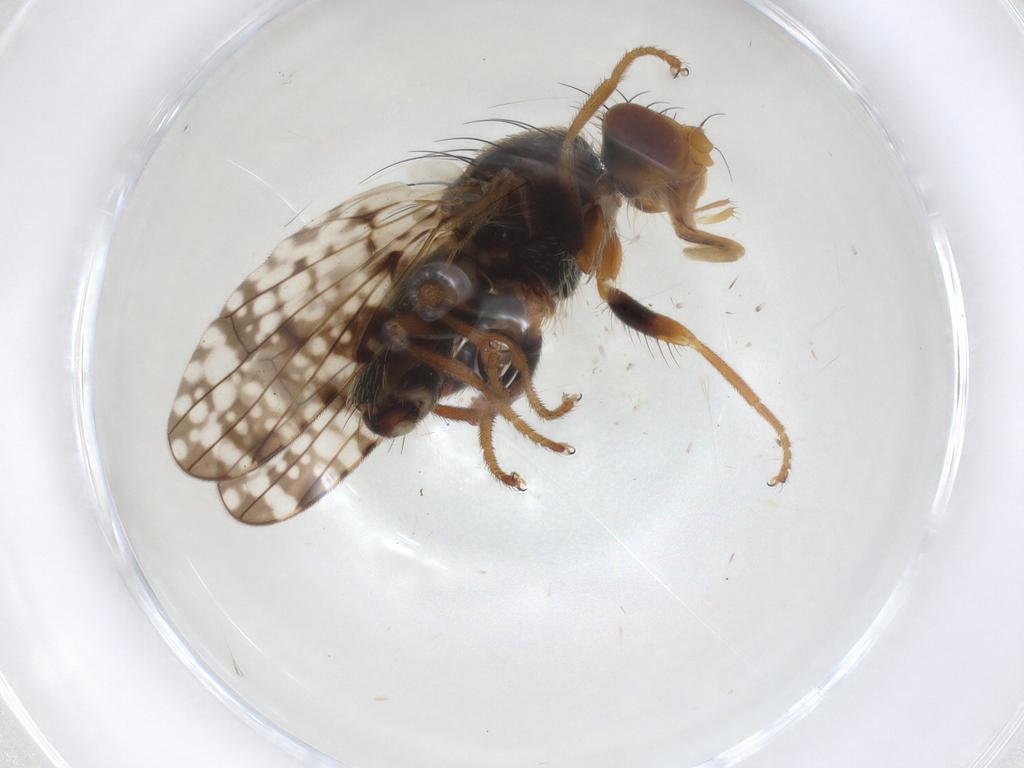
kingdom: Animalia
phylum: Arthropoda
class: Insecta
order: Diptera
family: Tephritidae
